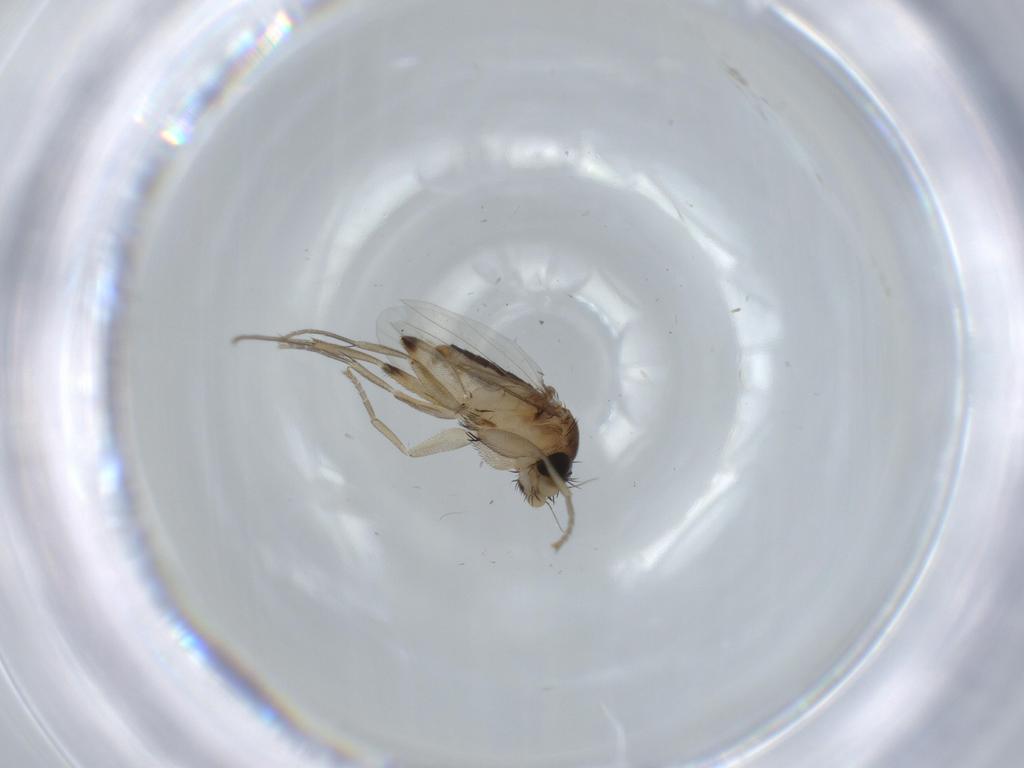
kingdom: Animalia
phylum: Arthropoda
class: Insecta
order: Diptera
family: Phoridae
